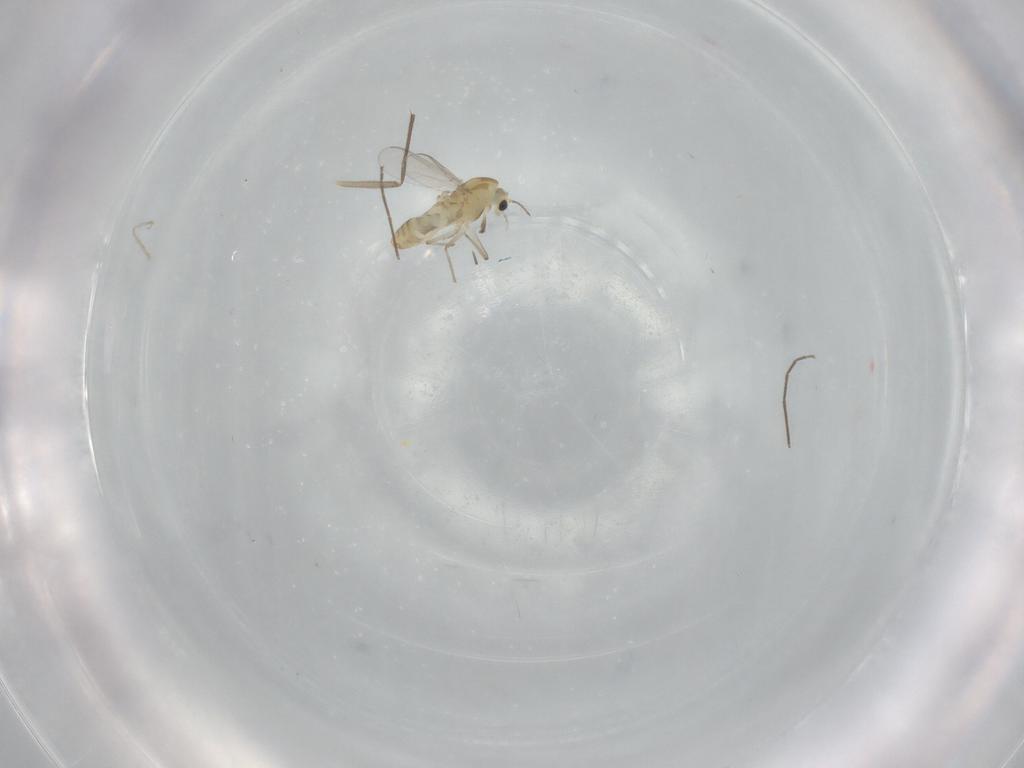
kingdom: Animalia
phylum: Arthropoda
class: Insecta
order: Diptera
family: Chironomidae
